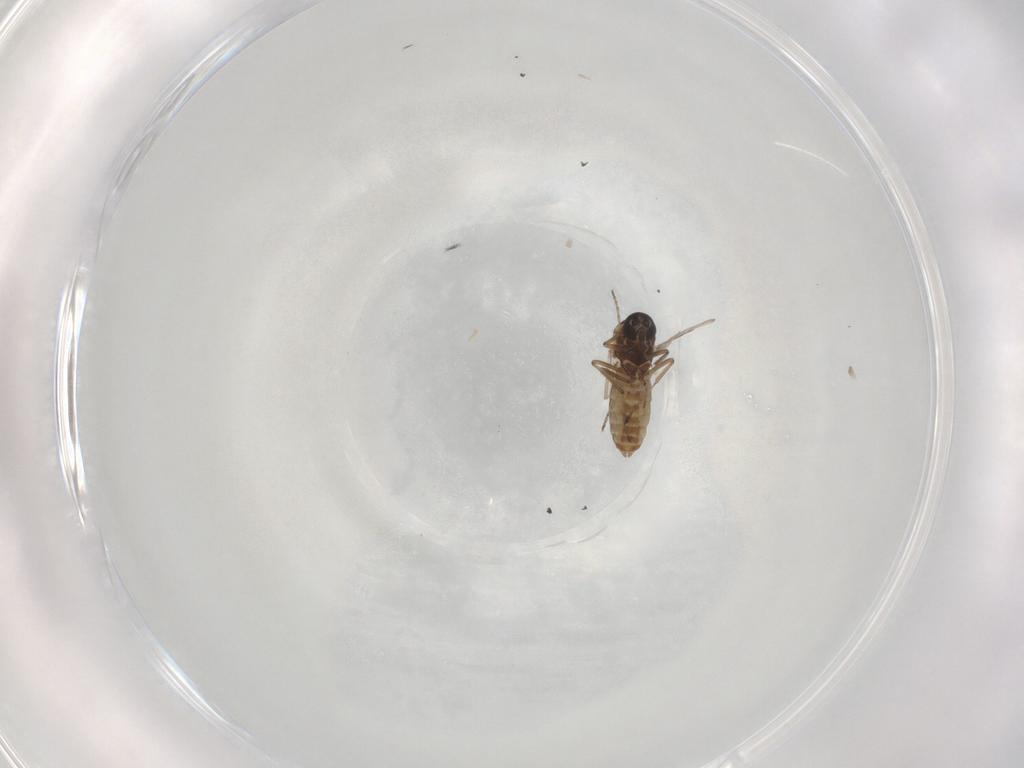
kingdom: Animalia
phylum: Arthropoda
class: Insecta
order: Diptera
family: Ceratopogonidae
